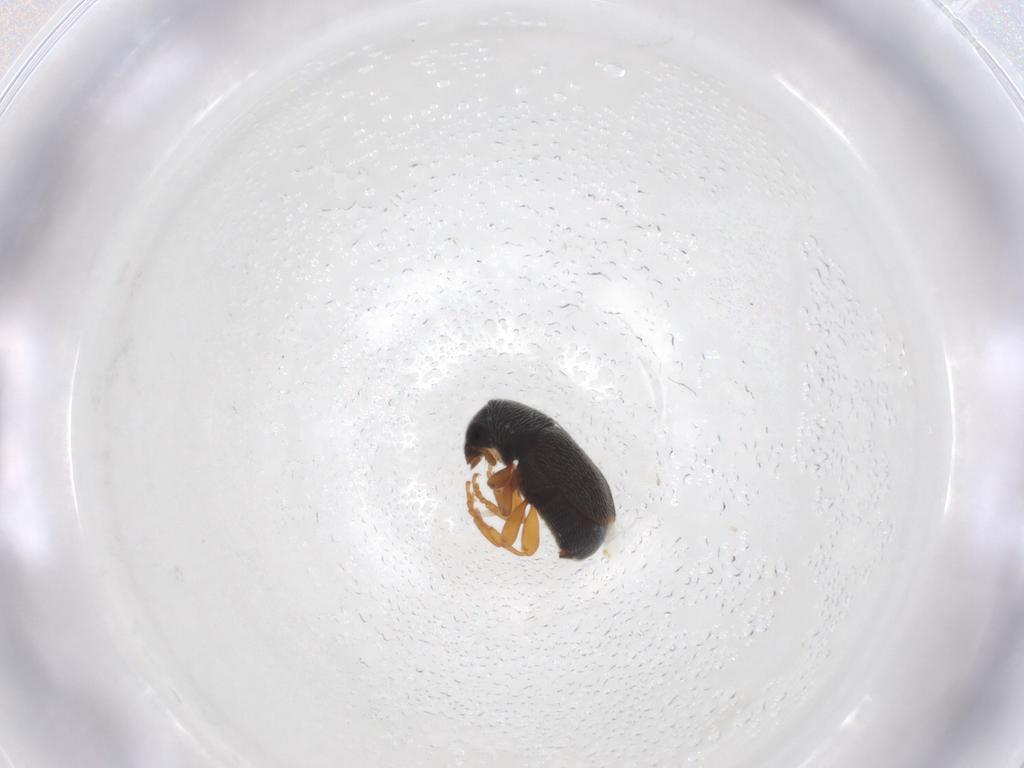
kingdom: Animalia
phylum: Arthropoda
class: Insecta
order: Coleoptera
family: Anthribidae
